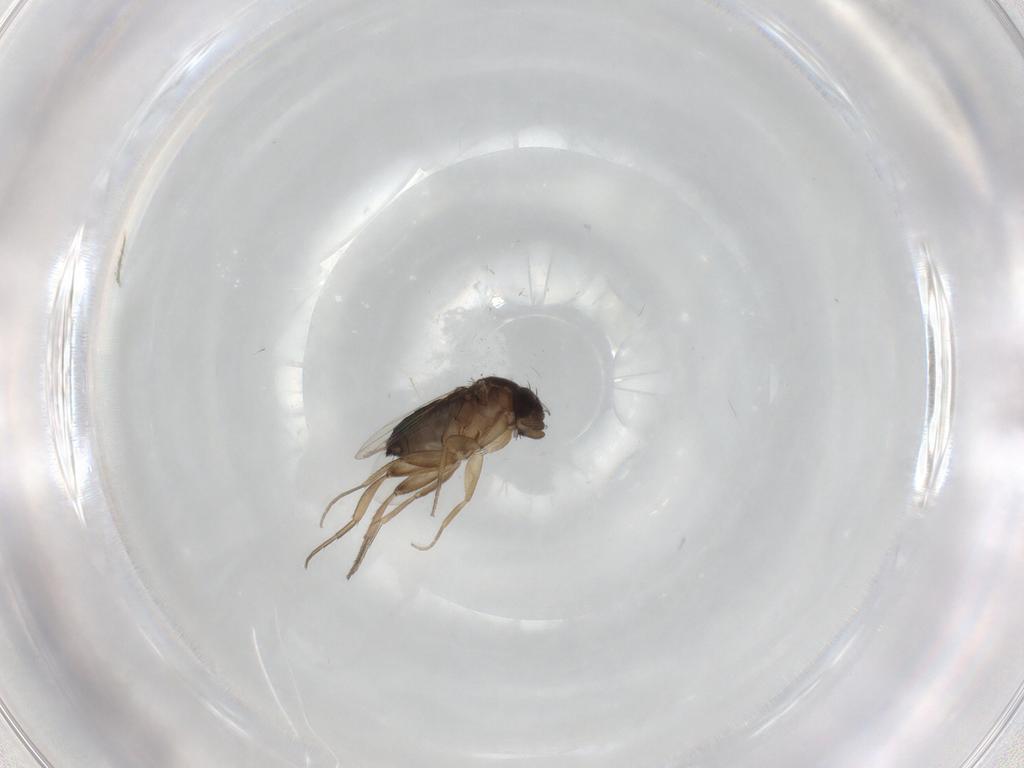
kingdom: Animalia
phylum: Arthropoda
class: Insecta
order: Diptera
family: Phoridae
